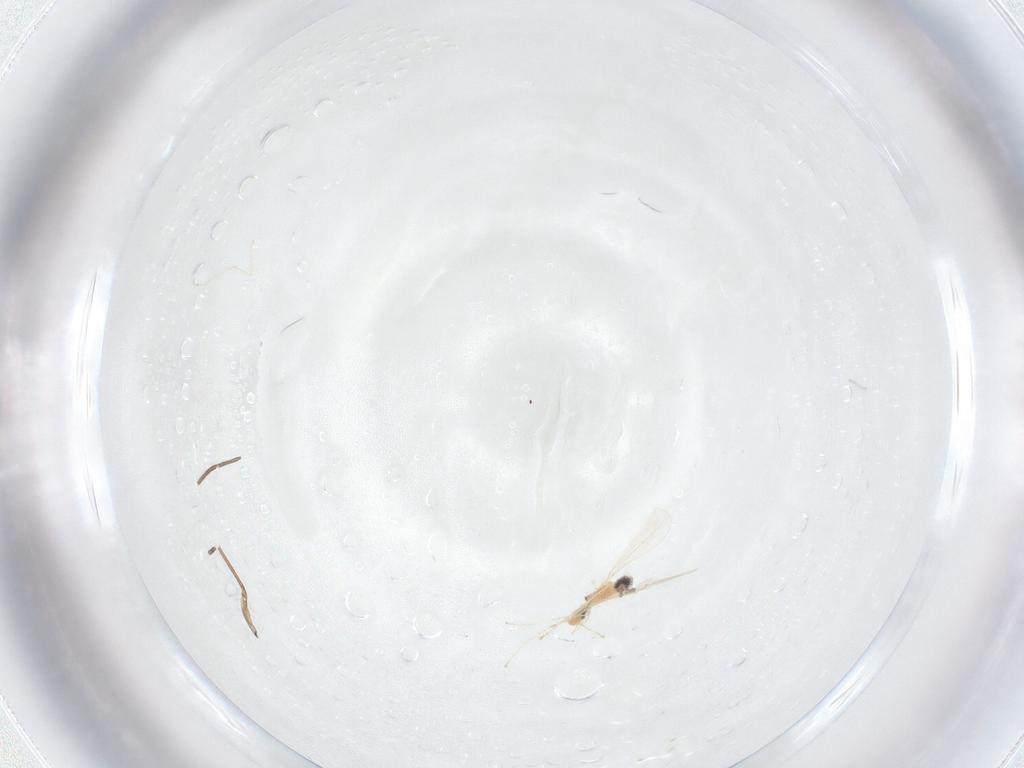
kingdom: Animalia
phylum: Arthropoda
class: Insecta
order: Diptera
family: Cecidomyiidae
